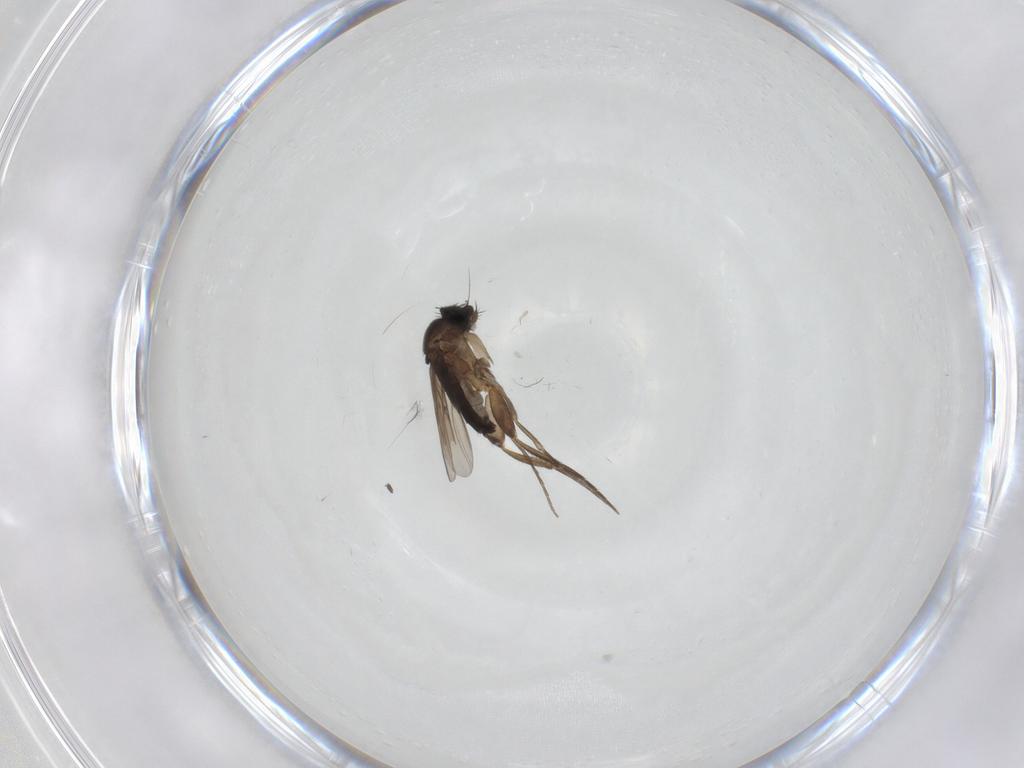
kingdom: Animalia
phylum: Arthropoda
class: Insecta
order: Diptera
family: Phoridae
